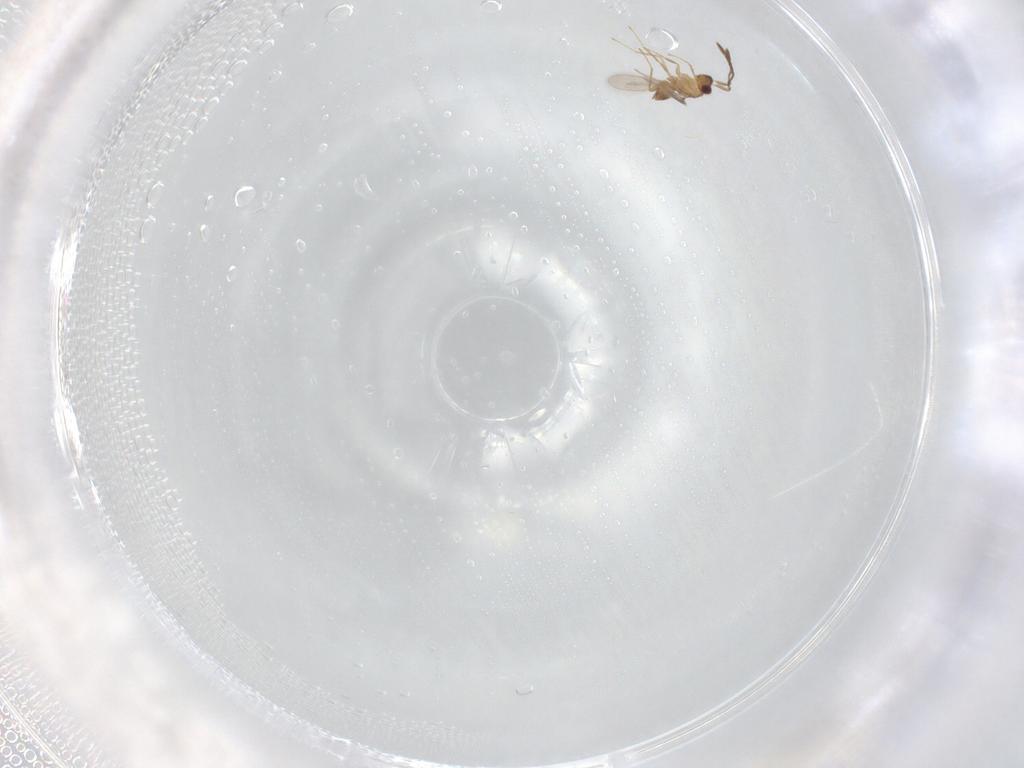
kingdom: Animalia
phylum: Arthropoda
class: Insecta
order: Hymenoptera
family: Mymaridae
